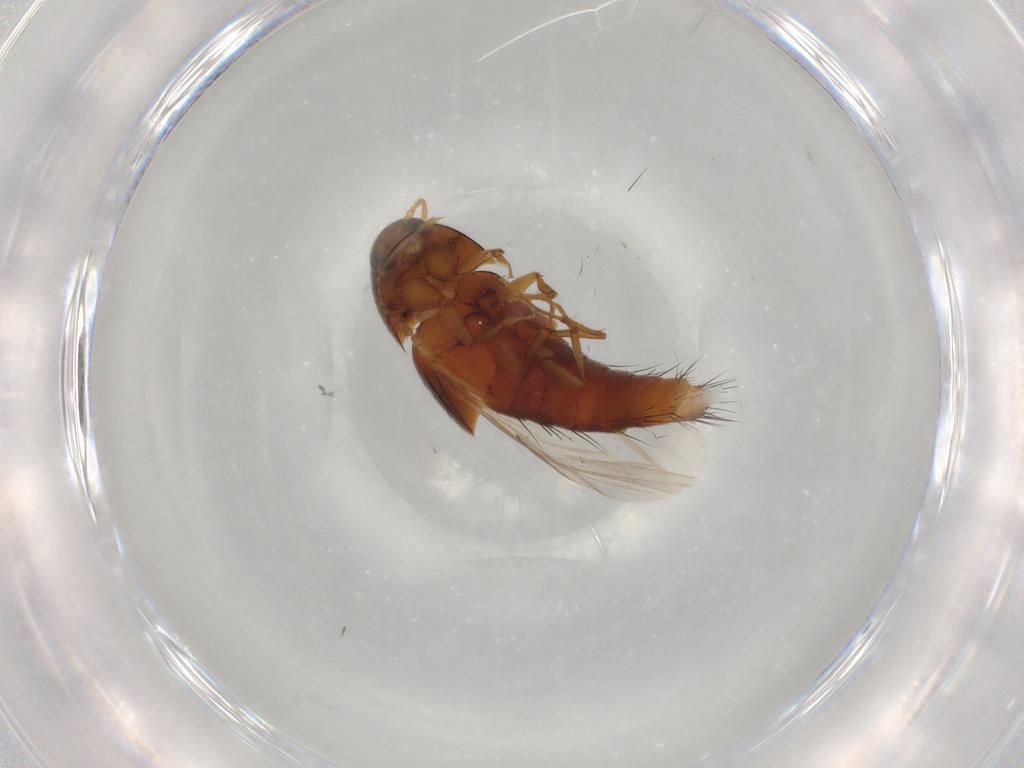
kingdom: Animalia
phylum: Arthropoda
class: Insecta
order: Coleoptera
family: Staphylinidae
